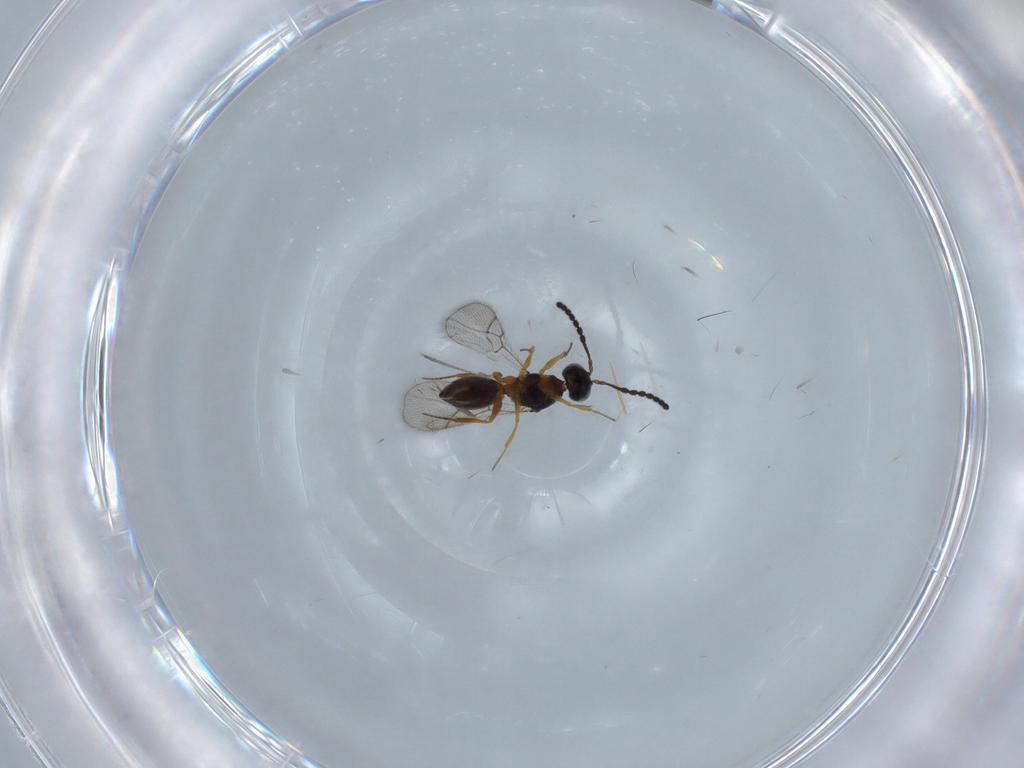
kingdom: Animalia
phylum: Arthropoda
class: Insecta
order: Hymenoptera
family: Figitidae
